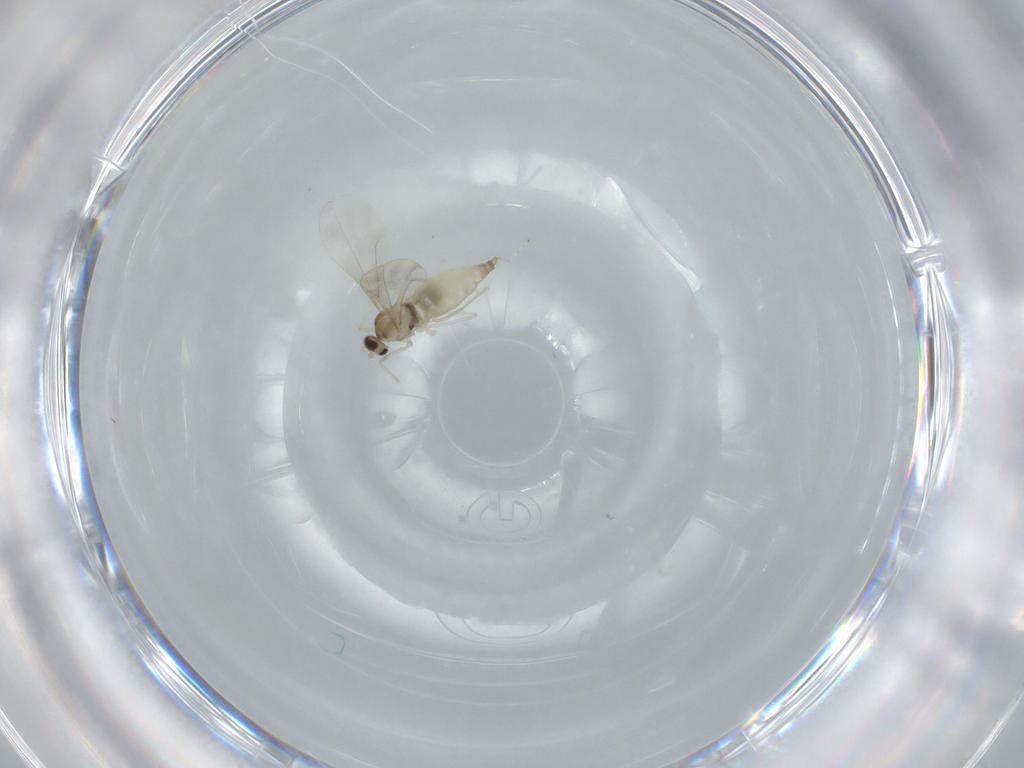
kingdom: Animalia
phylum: Arthropoda
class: Insecta
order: Diptera
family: Cecidomyiidae
